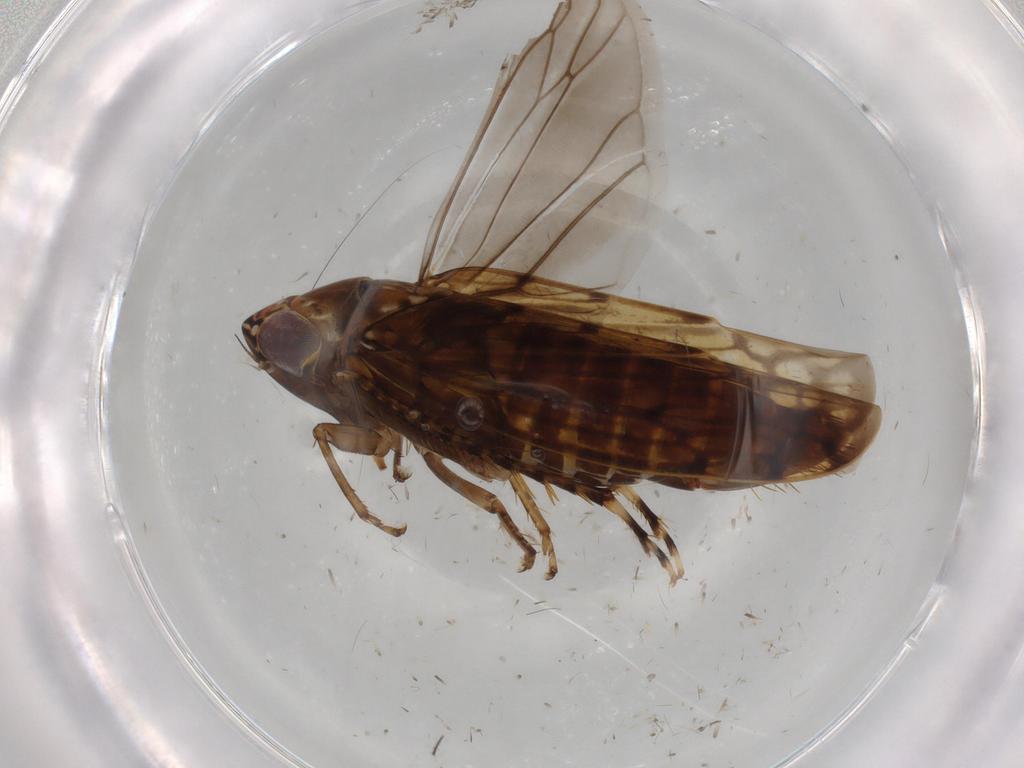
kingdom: Animalia
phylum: Arthropoda
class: Insecta
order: Hemiptera
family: Cicadellidae
